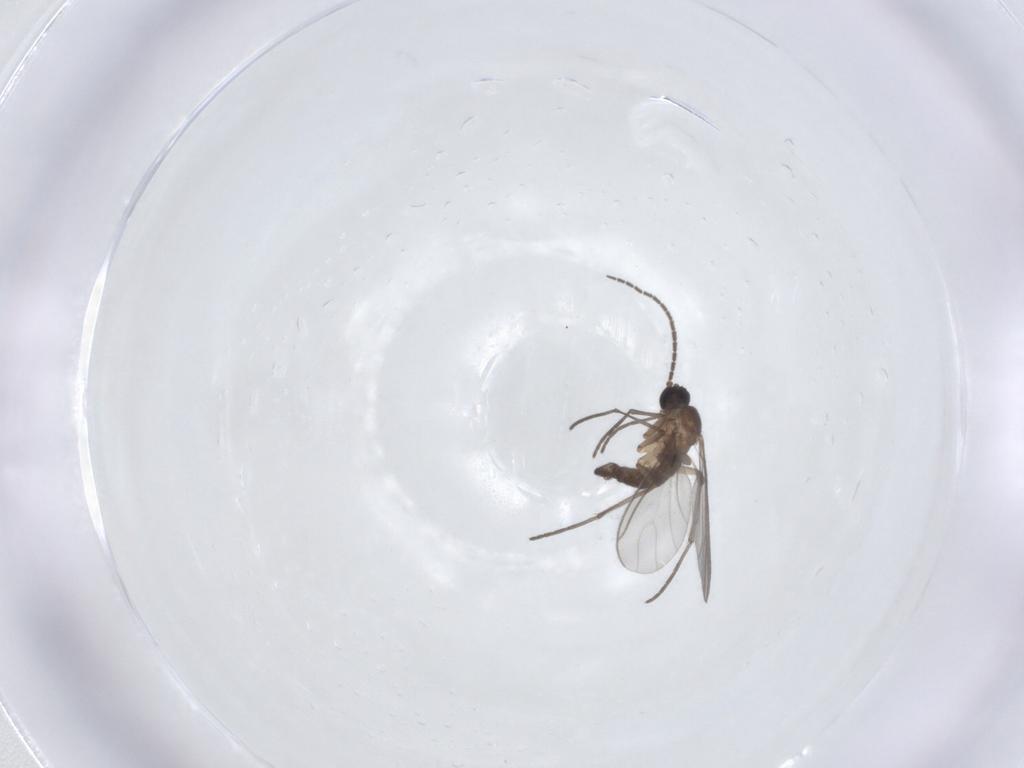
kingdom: Animalia
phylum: Arthropoda
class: Insecta
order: Diptera
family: Sciaridae
